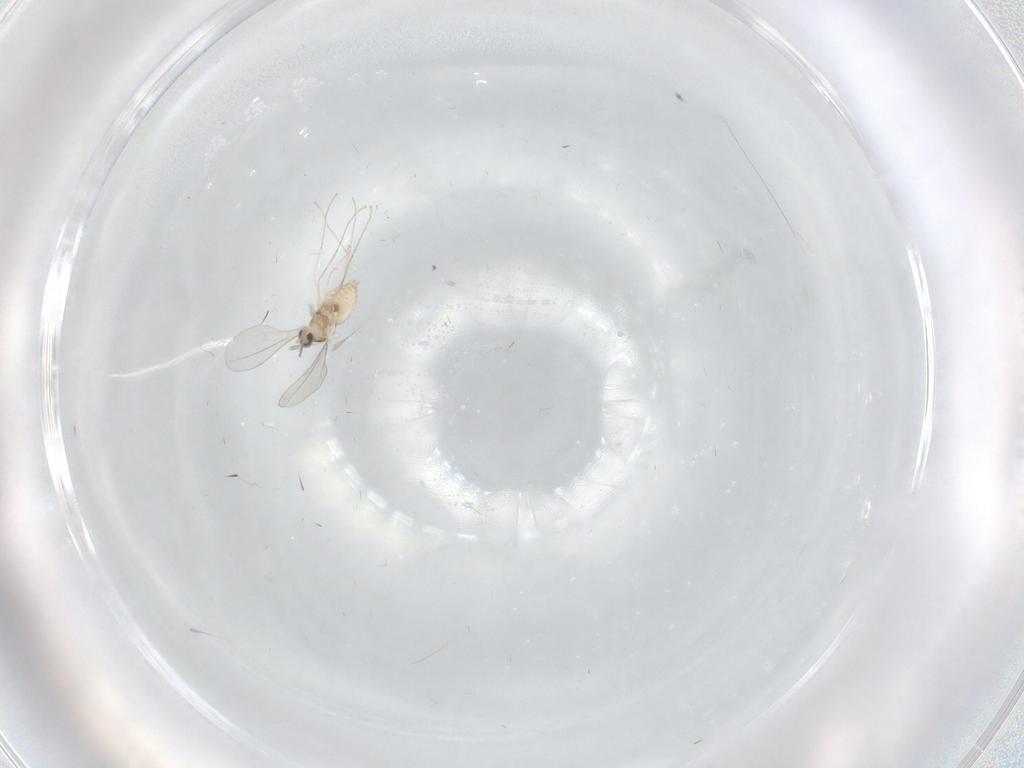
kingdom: Animalia
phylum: Arthropoda
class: Insecta
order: Diptera
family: Cecidomyiidae
